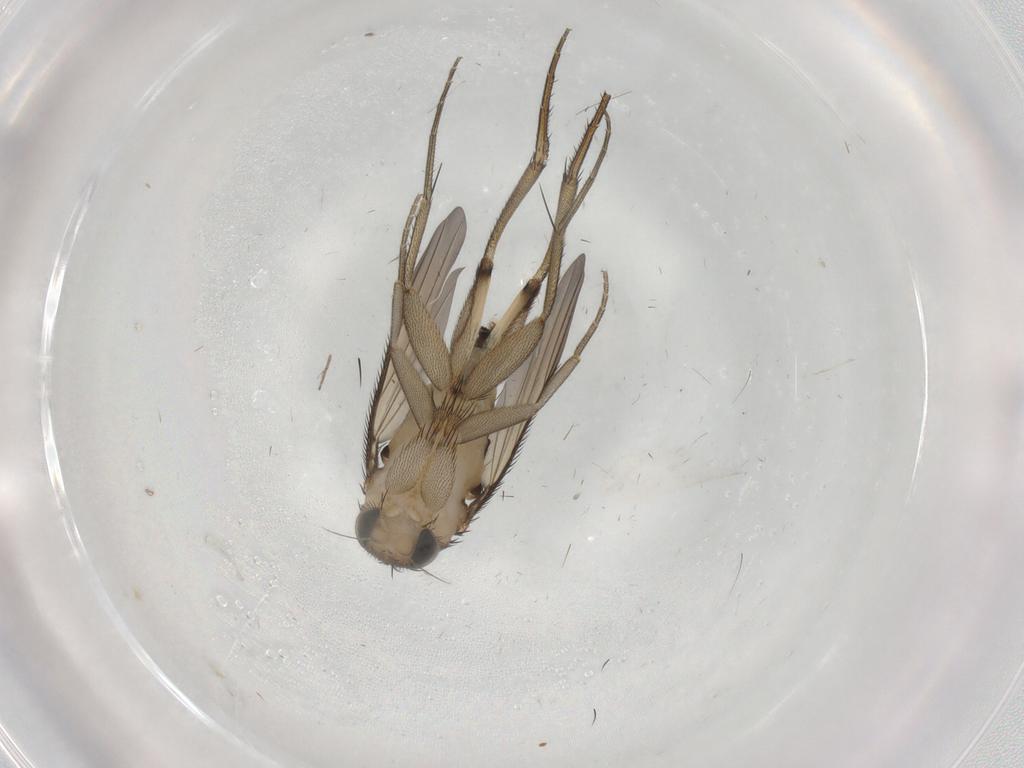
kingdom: Animalia
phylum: Arthropoda
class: Insecta
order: Diptera
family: Phoridae
